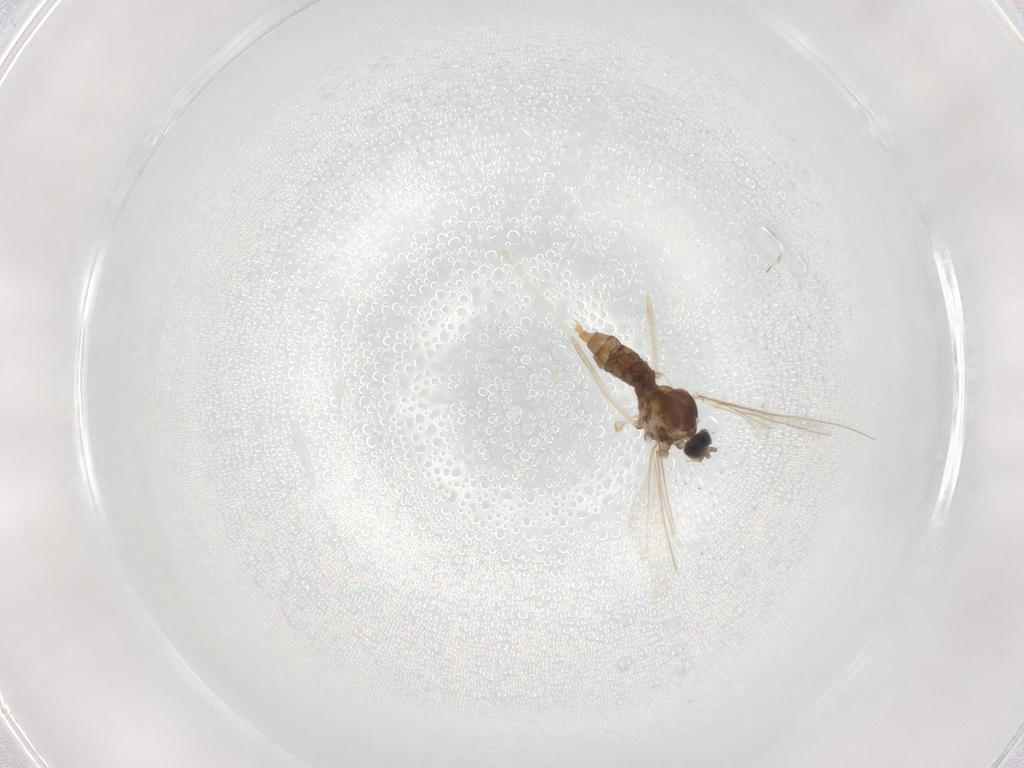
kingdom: Animalia
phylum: Arthropoda
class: Insecta
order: Diptera
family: Cecidomyiidae
